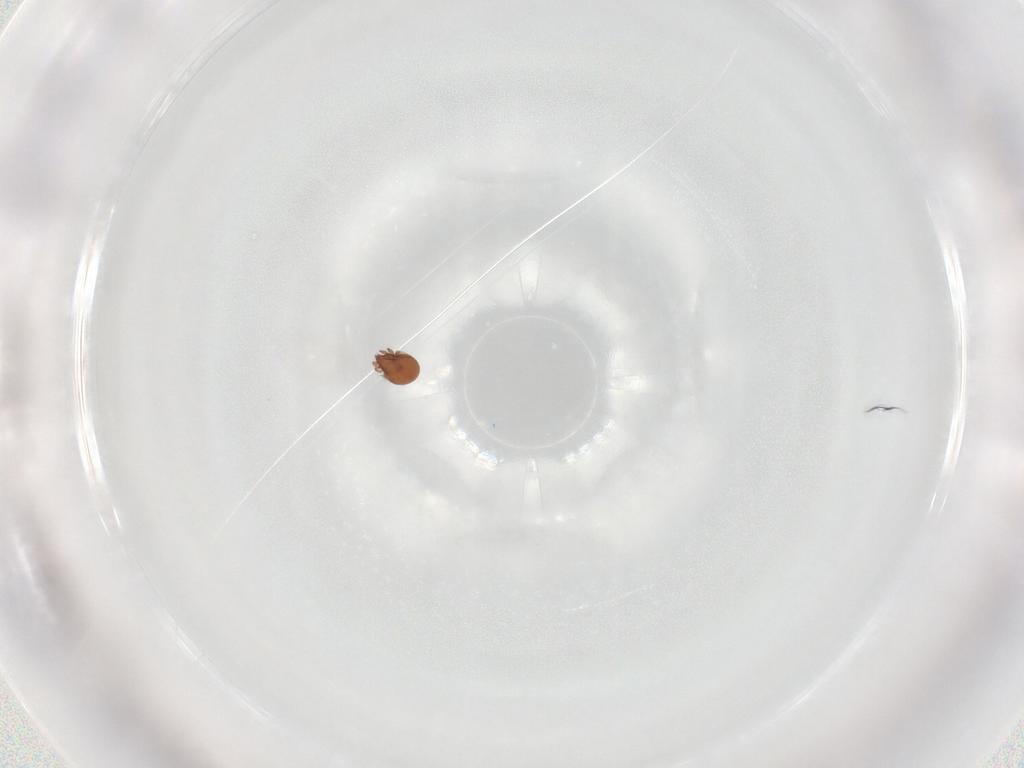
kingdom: Animalia
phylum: Arthropoda
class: Arachnida
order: Sarcoptiformes
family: Scheloribatidae
